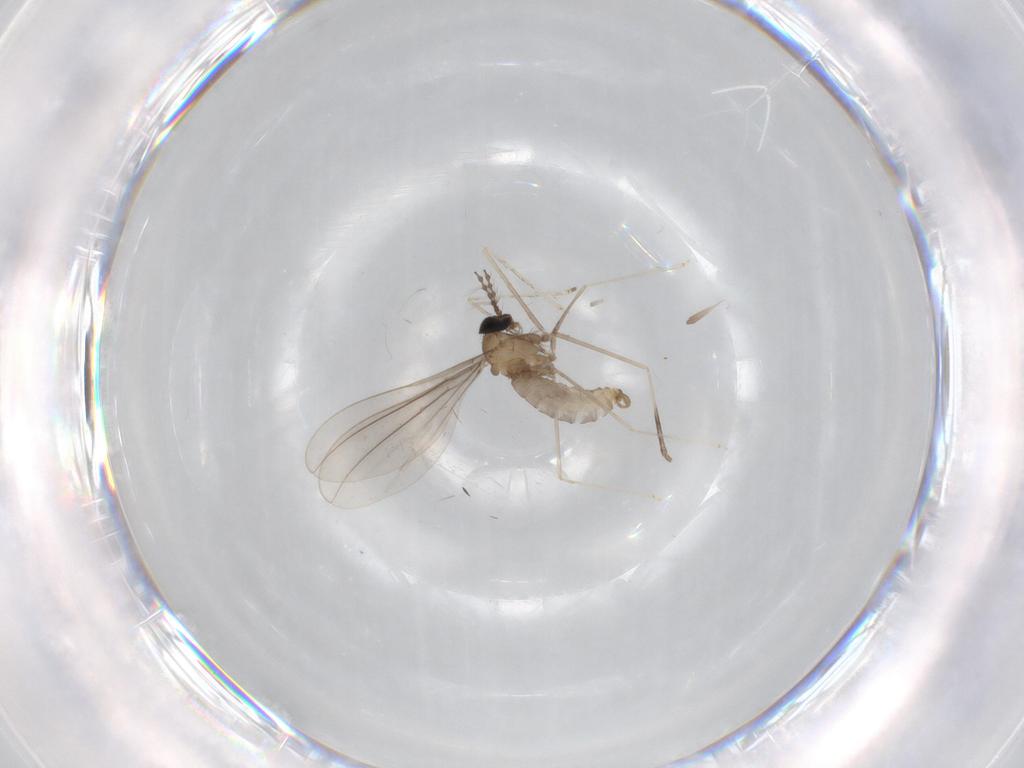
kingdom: Animalia
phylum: Arthropoda
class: Insecta
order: Diptera
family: Cecidomyiidae
